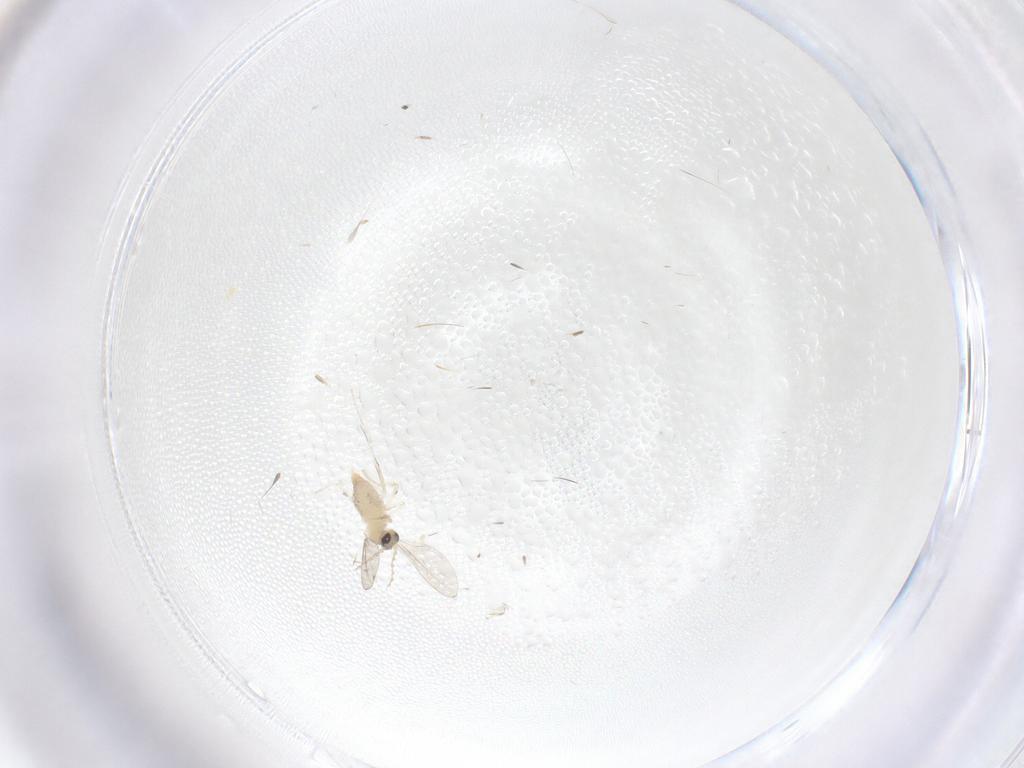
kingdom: Animalia
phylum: Arthropoda
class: Insecta
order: Diptera
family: Cecidomyiidae
